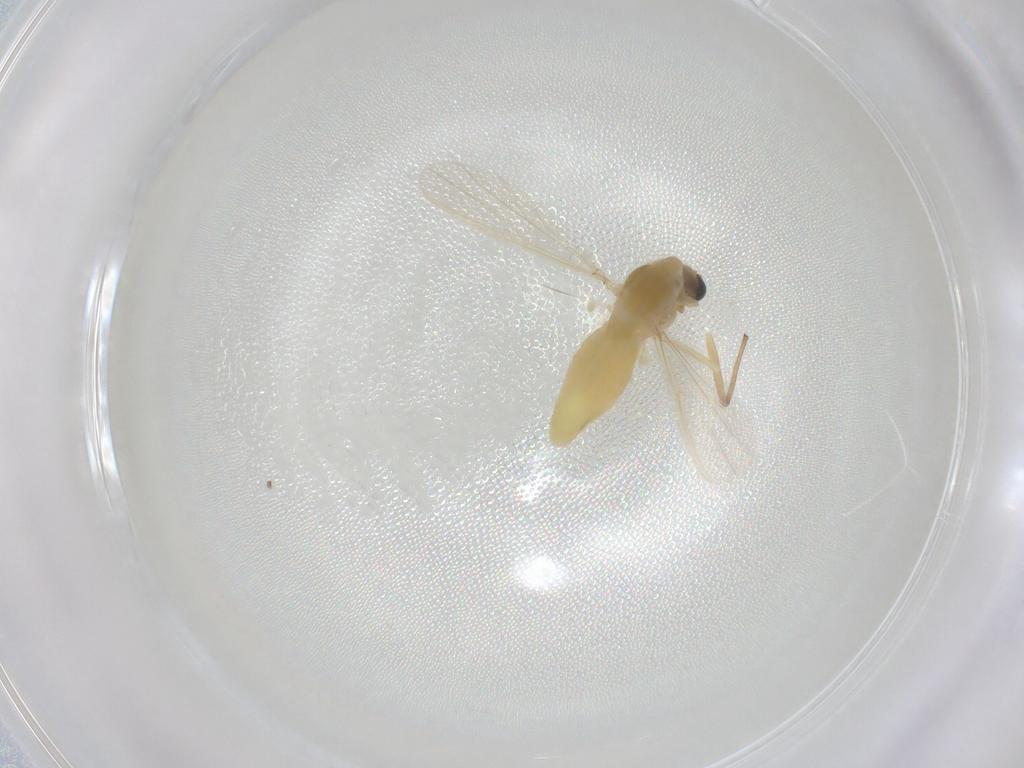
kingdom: Animalia
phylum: Arthropoda
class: Insecta
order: Diptera
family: Chironomidae
